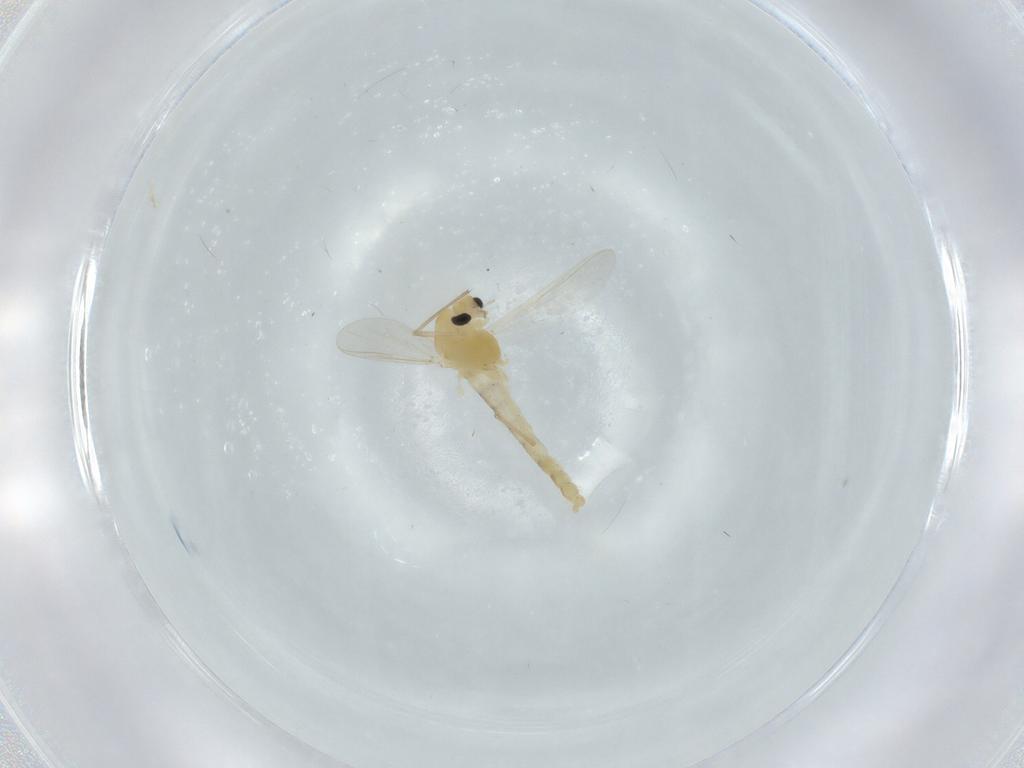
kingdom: Animalia
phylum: Arthropoda
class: Insecta
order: Diptera
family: Chironomidae
